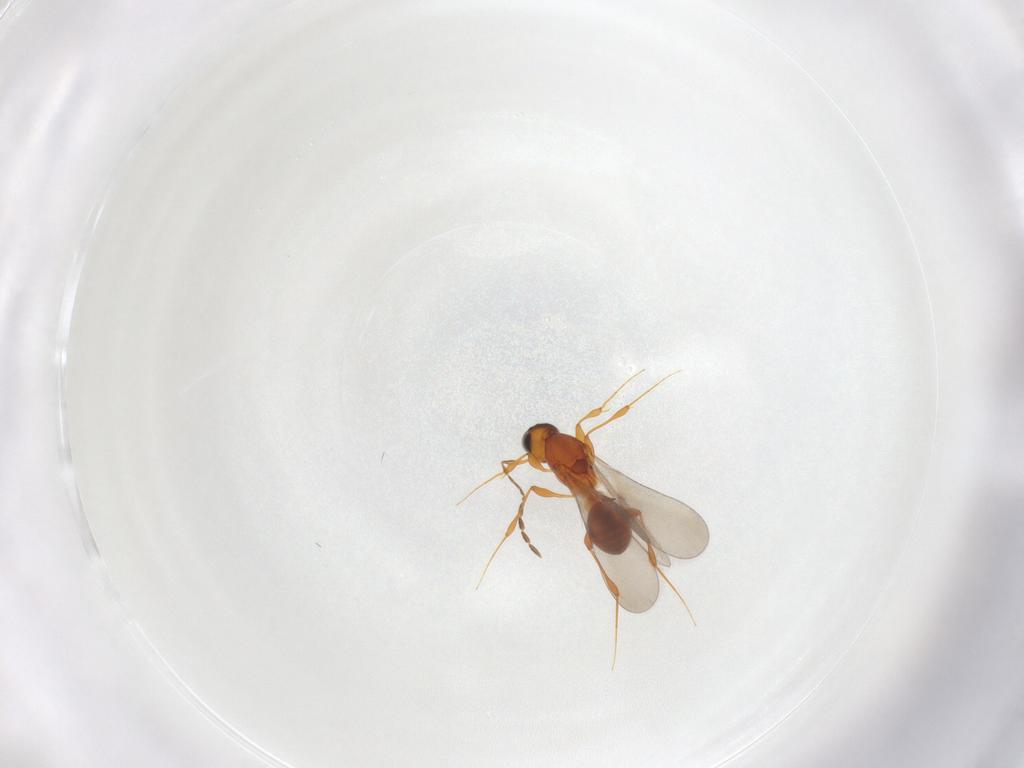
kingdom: Animalia
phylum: Arthropoda
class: Insecta
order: Hymenoptera
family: Platygastridae
